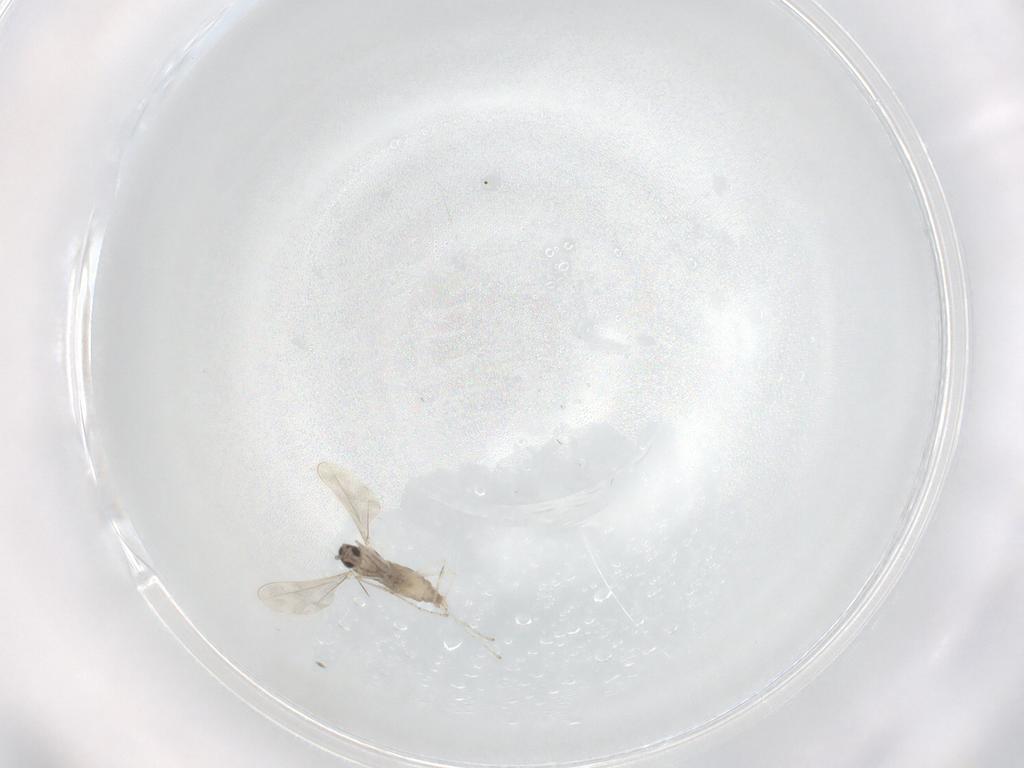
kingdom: Animalia
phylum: Arthropoda
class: Insecta
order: Diptera
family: Cecidomyiidae
